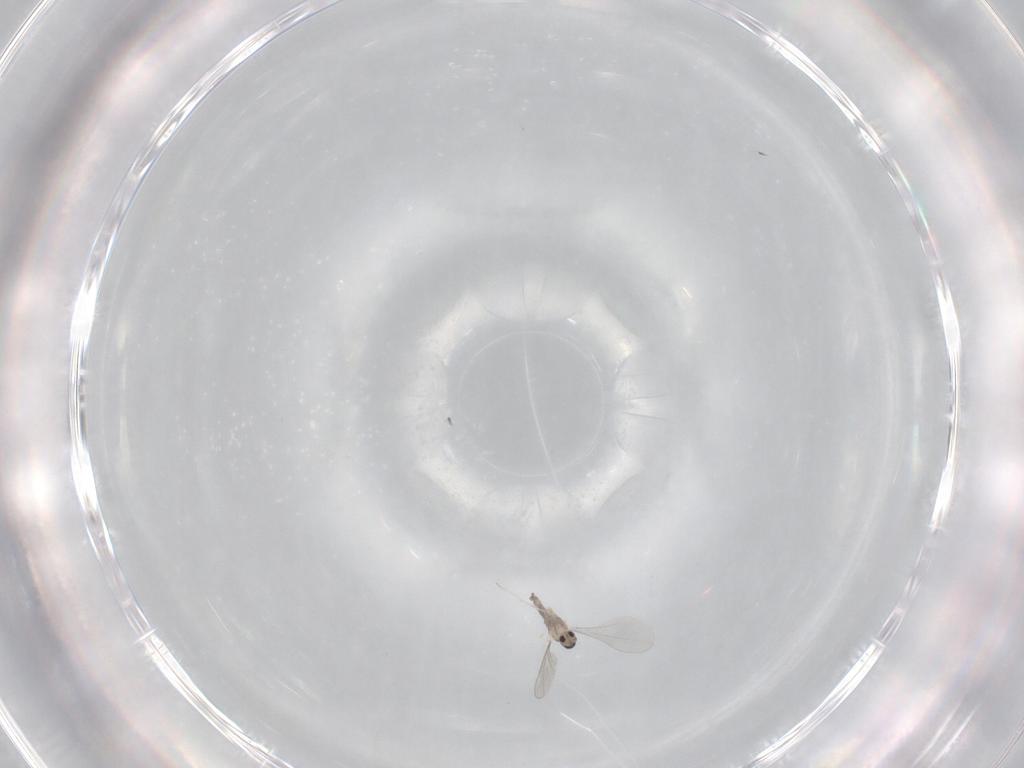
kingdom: Animalia
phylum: Arthropoda
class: Insecta
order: Diptera
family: Cecidomyiidae
